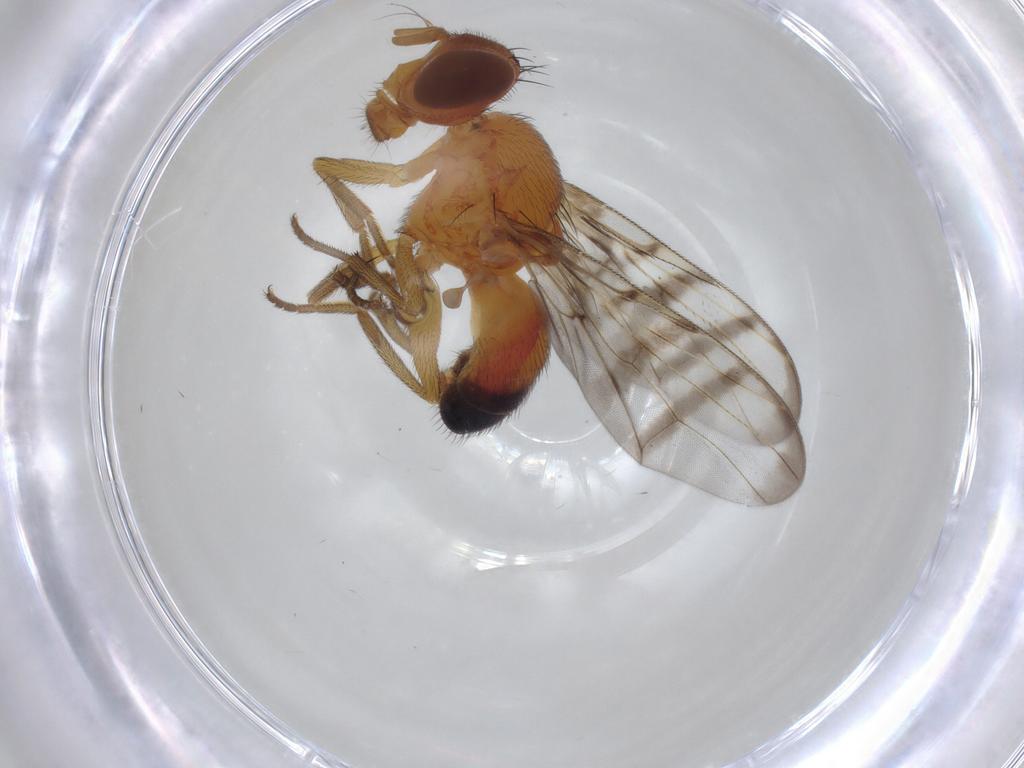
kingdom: Animalia
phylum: Arthropoda
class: Insecta
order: Diptera
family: Platystomatidae
